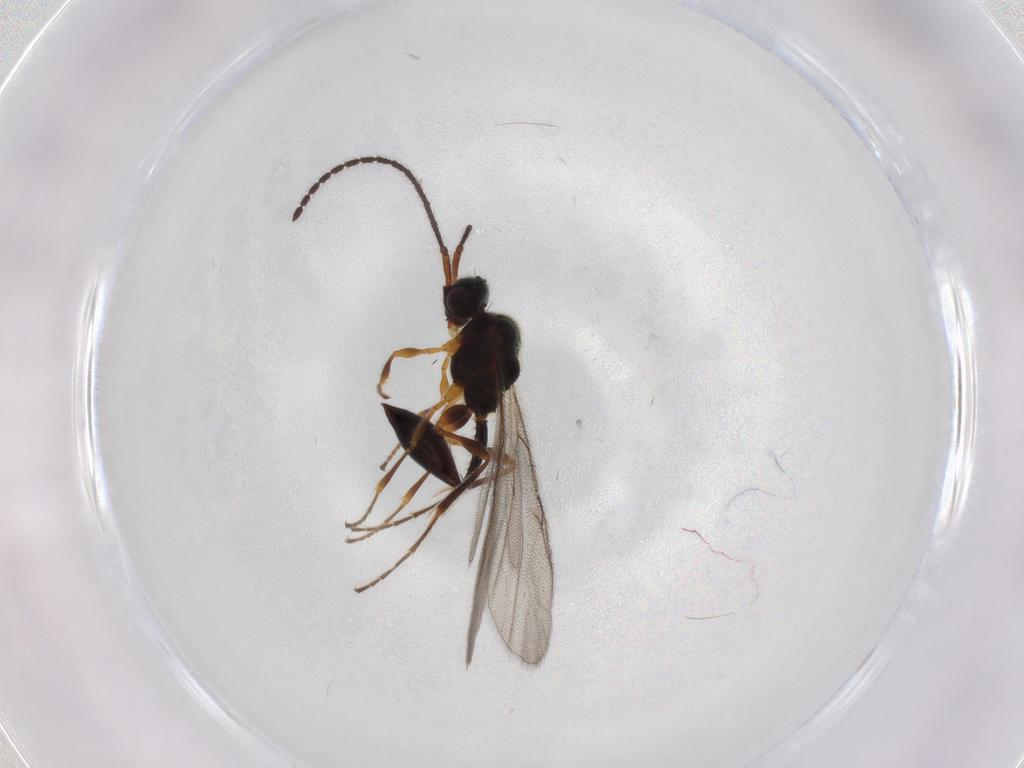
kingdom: Animalia
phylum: Arthropoda
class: Insecta
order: Hymenoptera
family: Diapriidae
